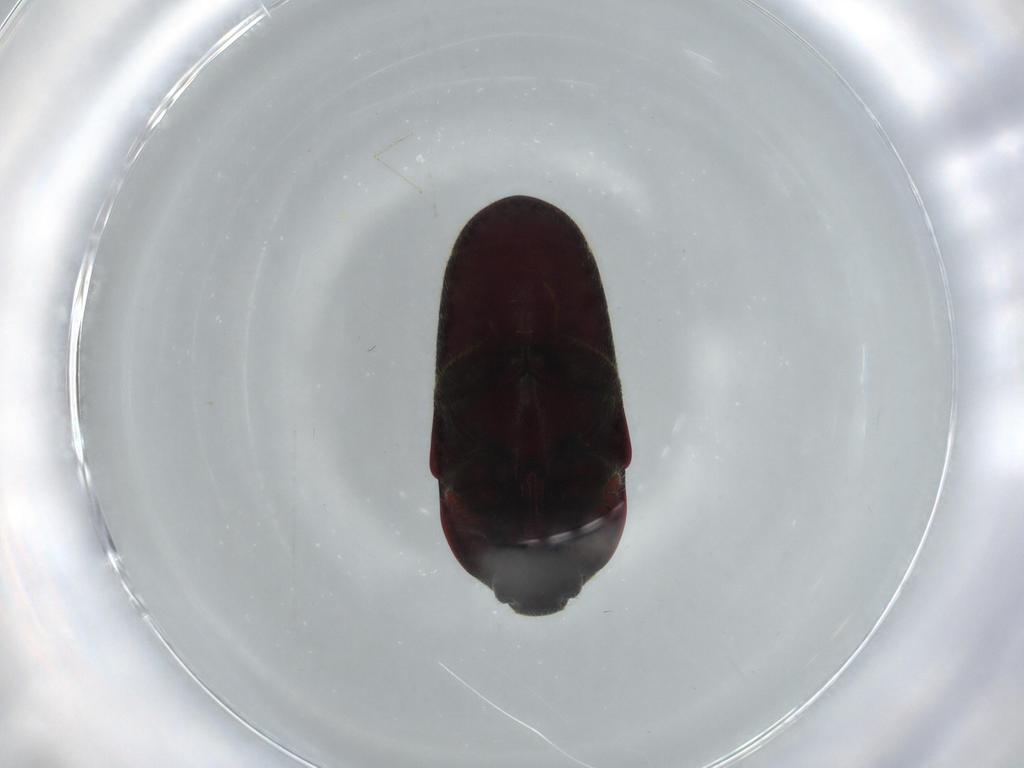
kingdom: Animalia
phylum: Arthropoda
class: Insecta
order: Coleoptera
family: Throscidae
